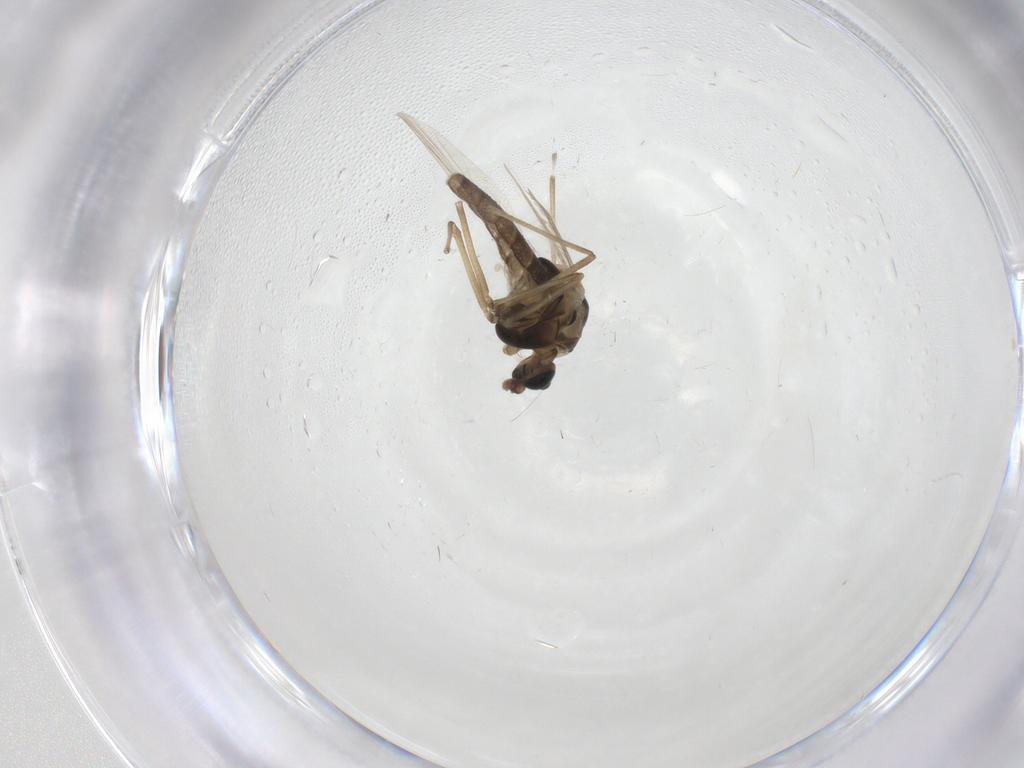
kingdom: Animalia
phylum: Arthropoda
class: Insecta
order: Diptera
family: Chironomidae
